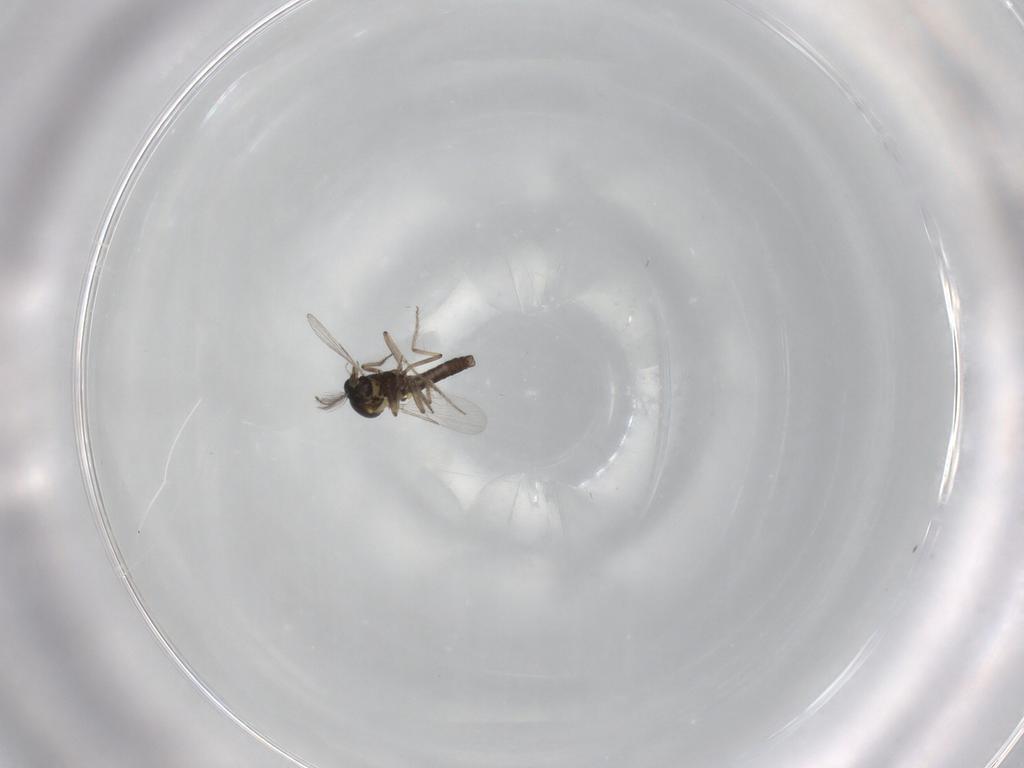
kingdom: Animalia
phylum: Arthropoda
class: Insecta
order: Diptera
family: Ceratopogonidae
